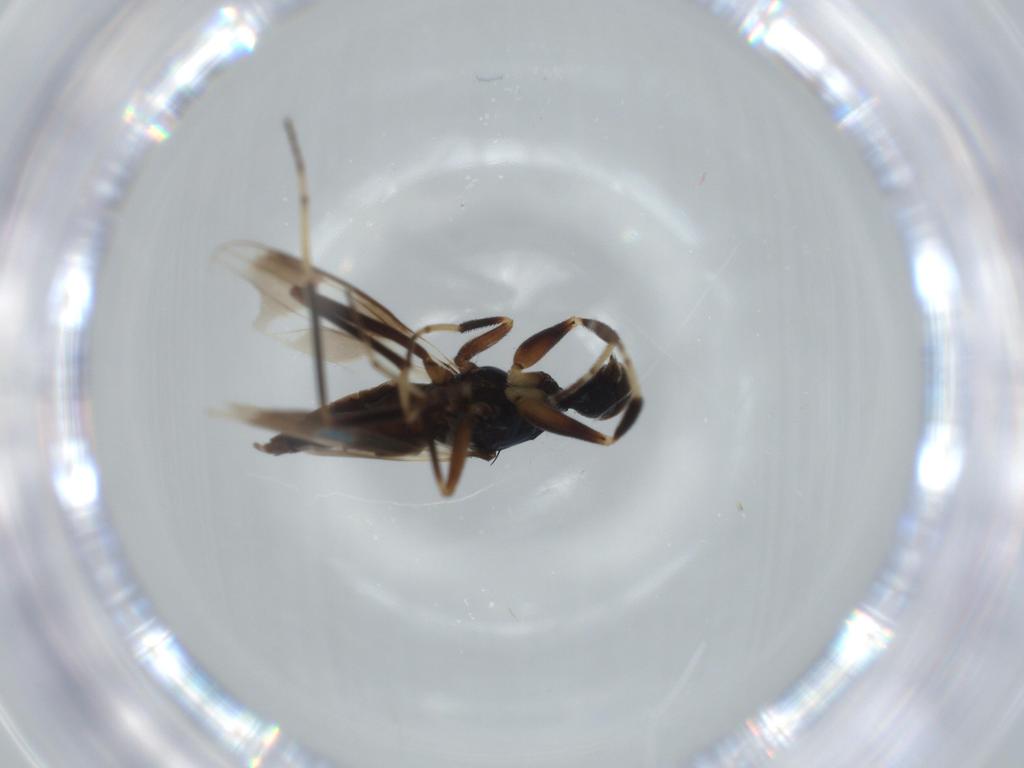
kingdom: Animalia
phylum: Arthropoda
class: Insecta
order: Diptera
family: Hybotidae
